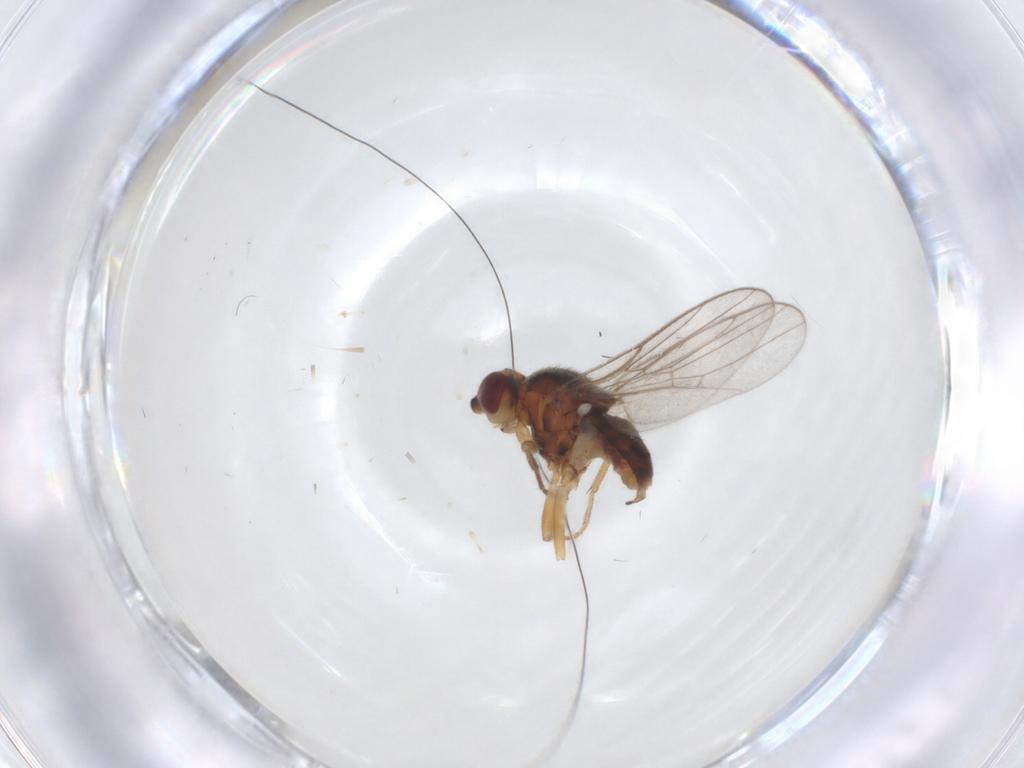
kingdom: Animalia
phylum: Arthropoda
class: Insecta
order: Diptera
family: Chloropidae
